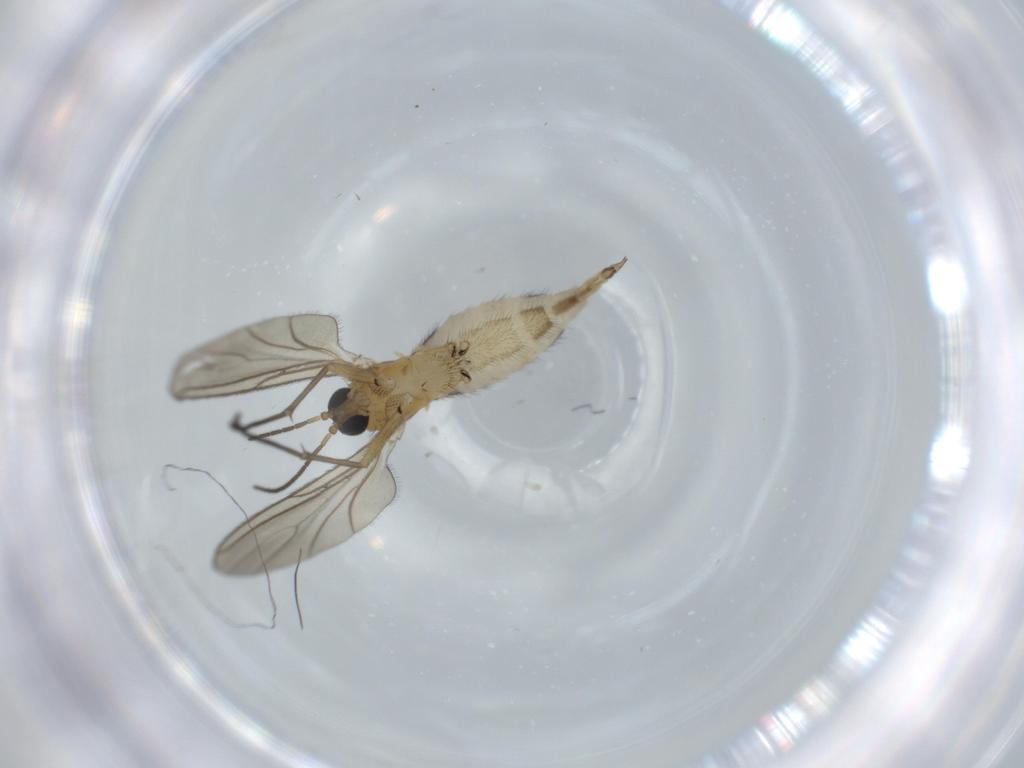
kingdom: Animalia
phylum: Arthropoda
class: Insecta
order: Diptera
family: Sciaridae
